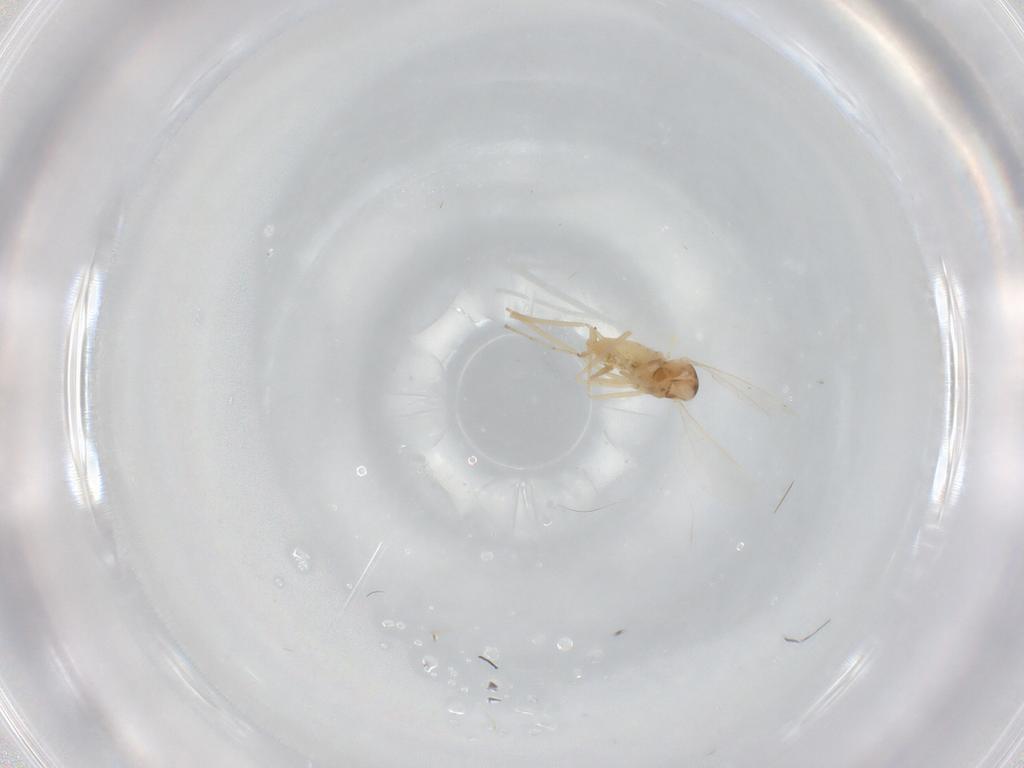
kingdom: Animalia
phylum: Arthropoda
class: Insecta
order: Diptera
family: Cecidomyiidae
